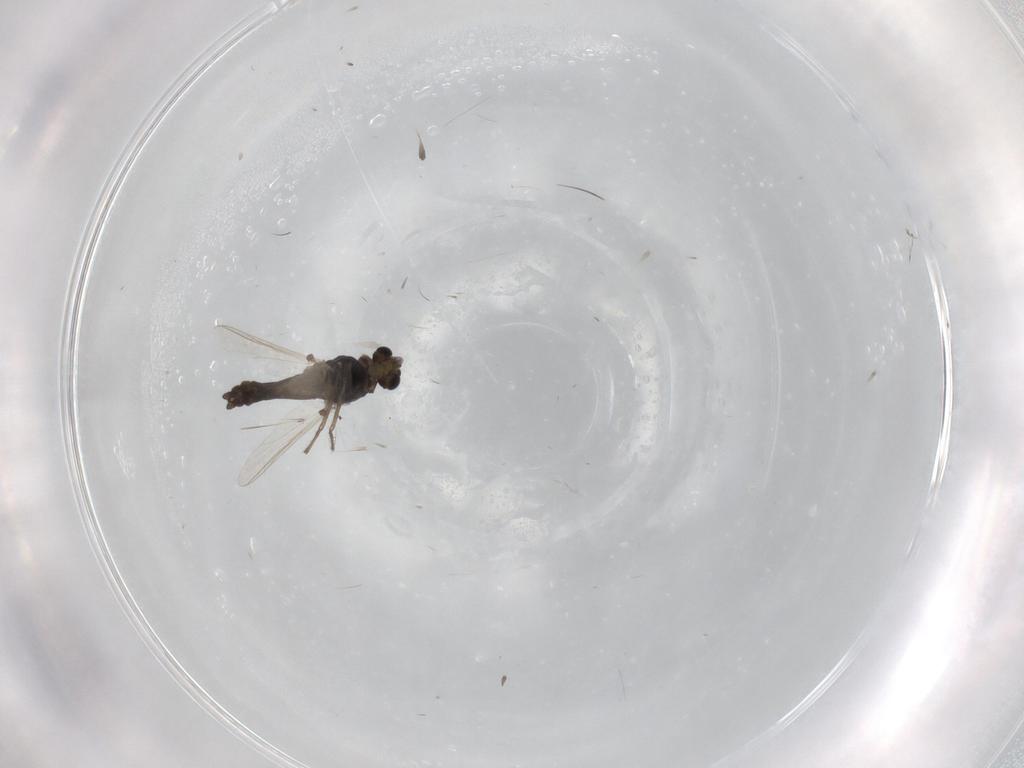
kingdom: Animalia
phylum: Arthropoda
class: Insecta
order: Diptera
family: Chironomidae
